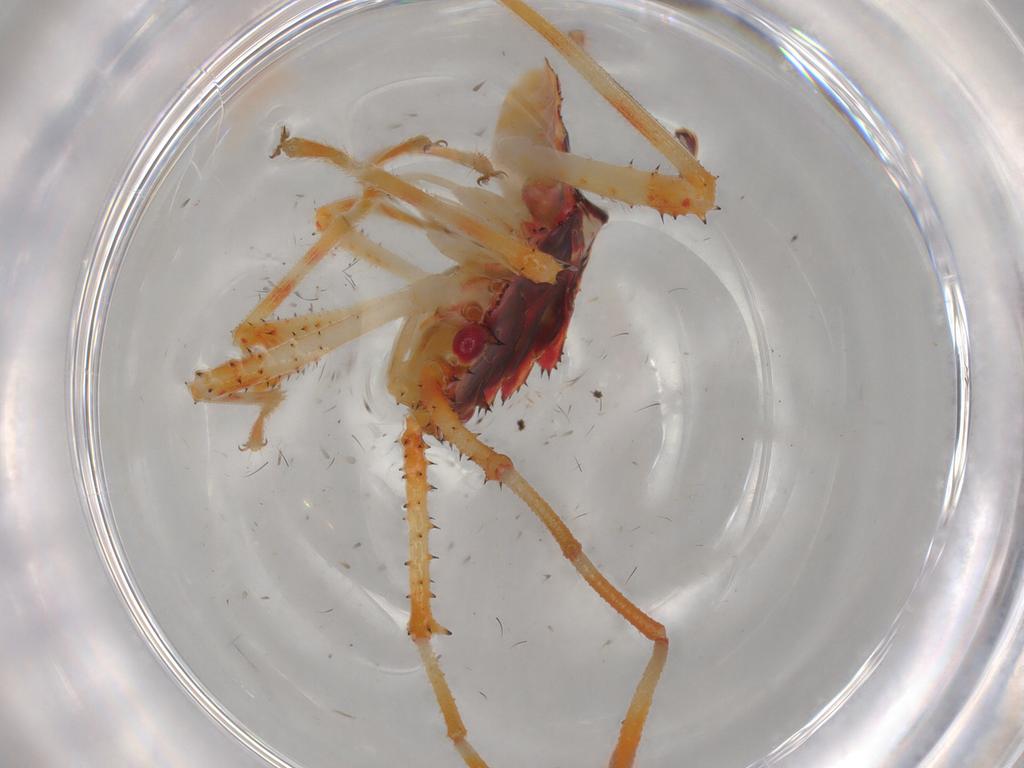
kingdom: Animalia
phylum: Arthropoda
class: Insecta
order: Hemiptera
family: Coreidae
